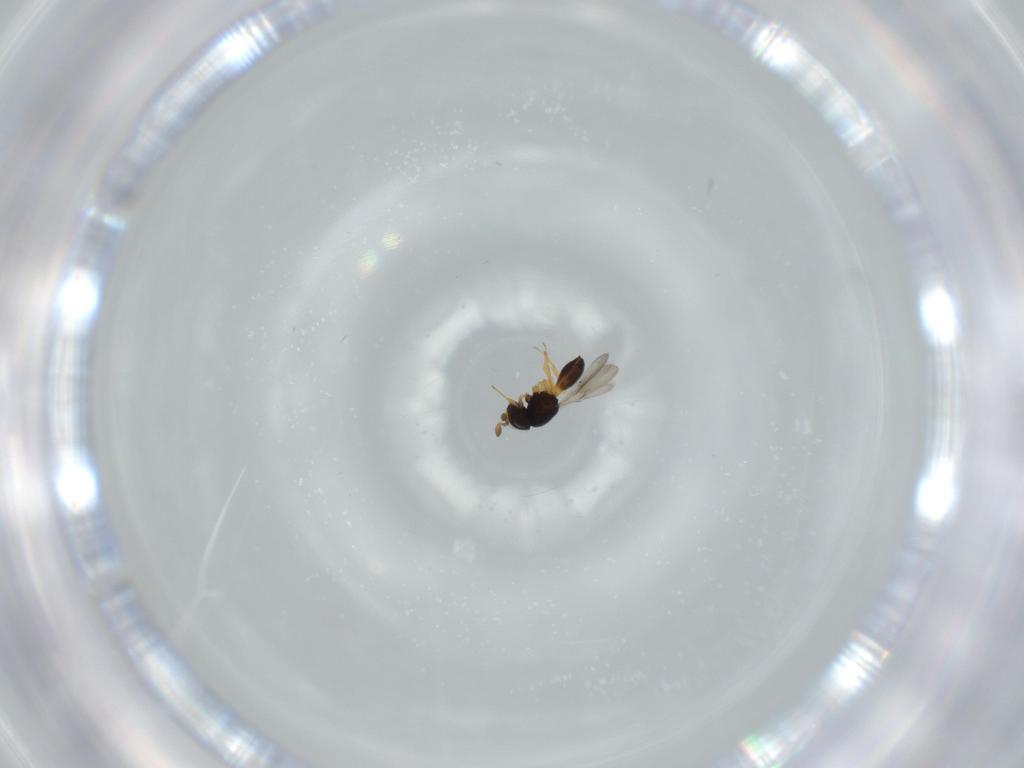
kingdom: Animalia
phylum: Arthropoda
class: Insecta
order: Hymenoptera
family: Scelionidae
